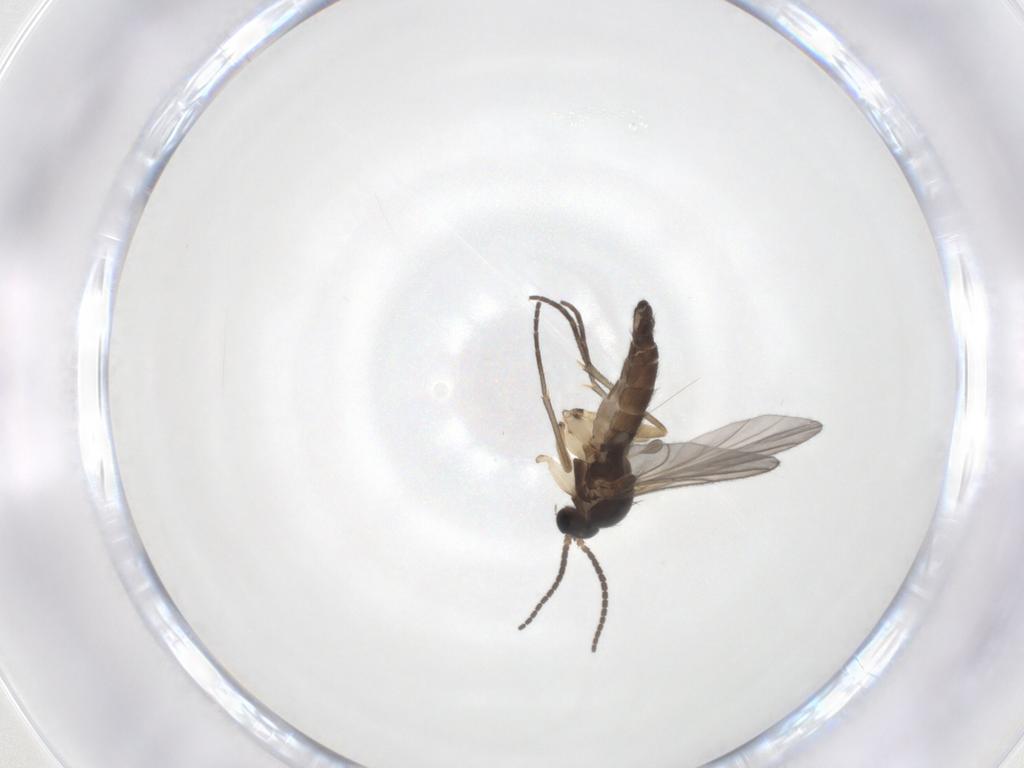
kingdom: Animalia
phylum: Arthropoda
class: Insecta
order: Diptera
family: Sciaridae
